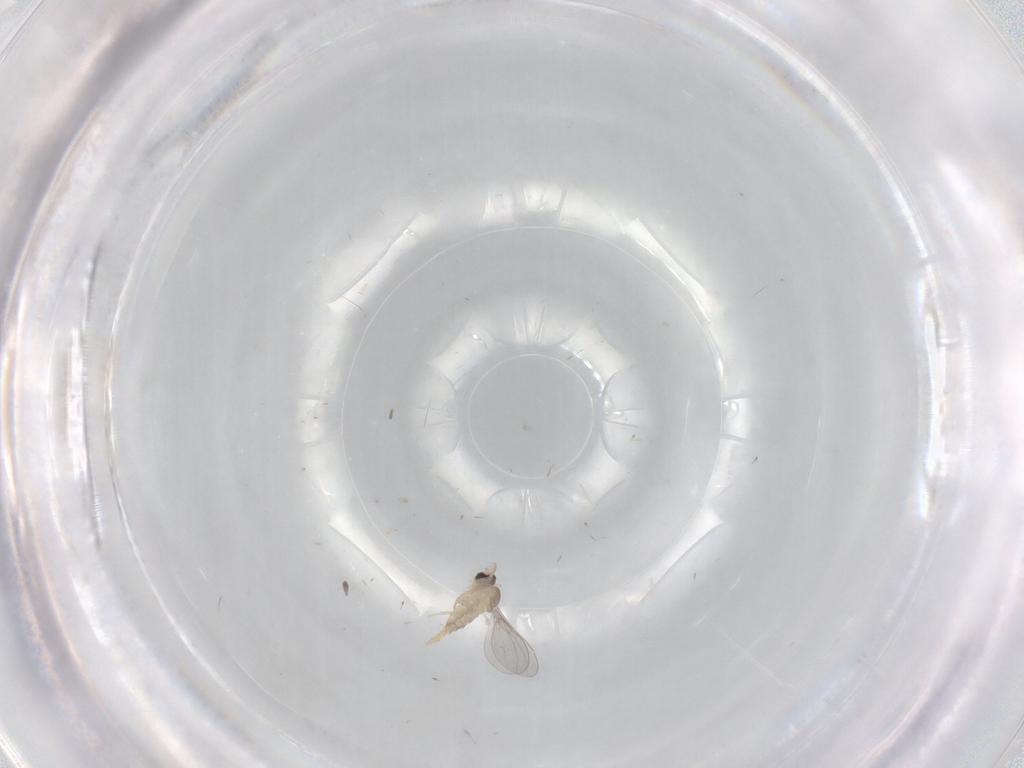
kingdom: Animalia
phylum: Arthropoda
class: Insecta
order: Diptera
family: Cecidomyiidae
